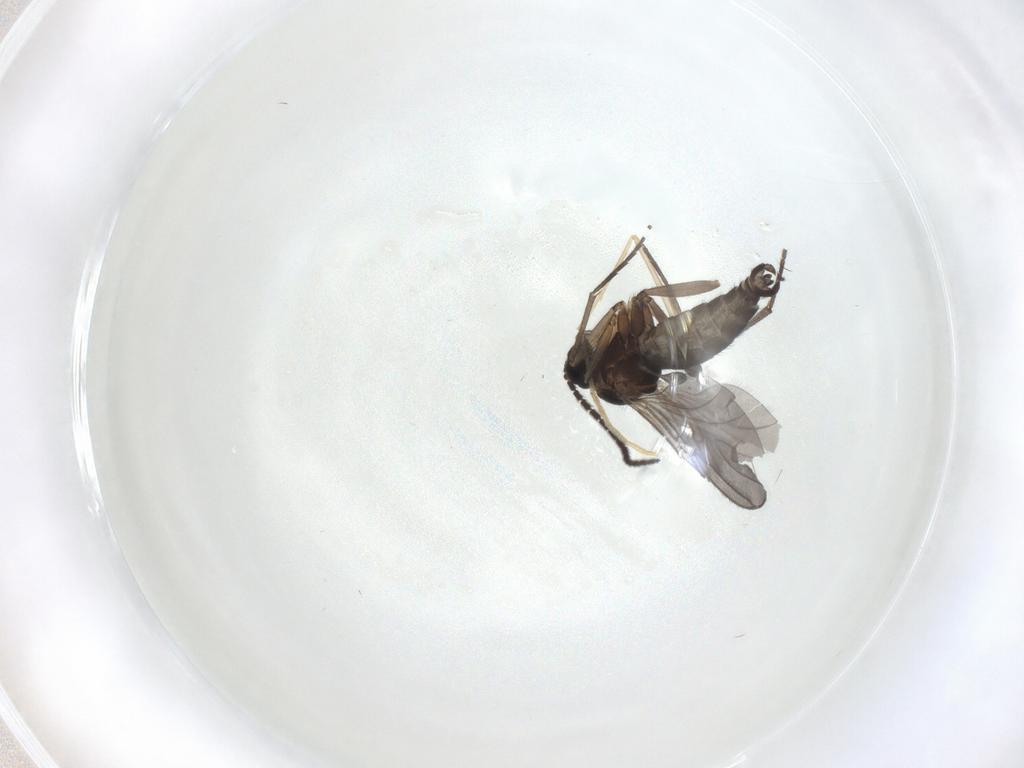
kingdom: Animalia
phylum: Arthropoda
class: Insecta
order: Diptera
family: Sciaridae
